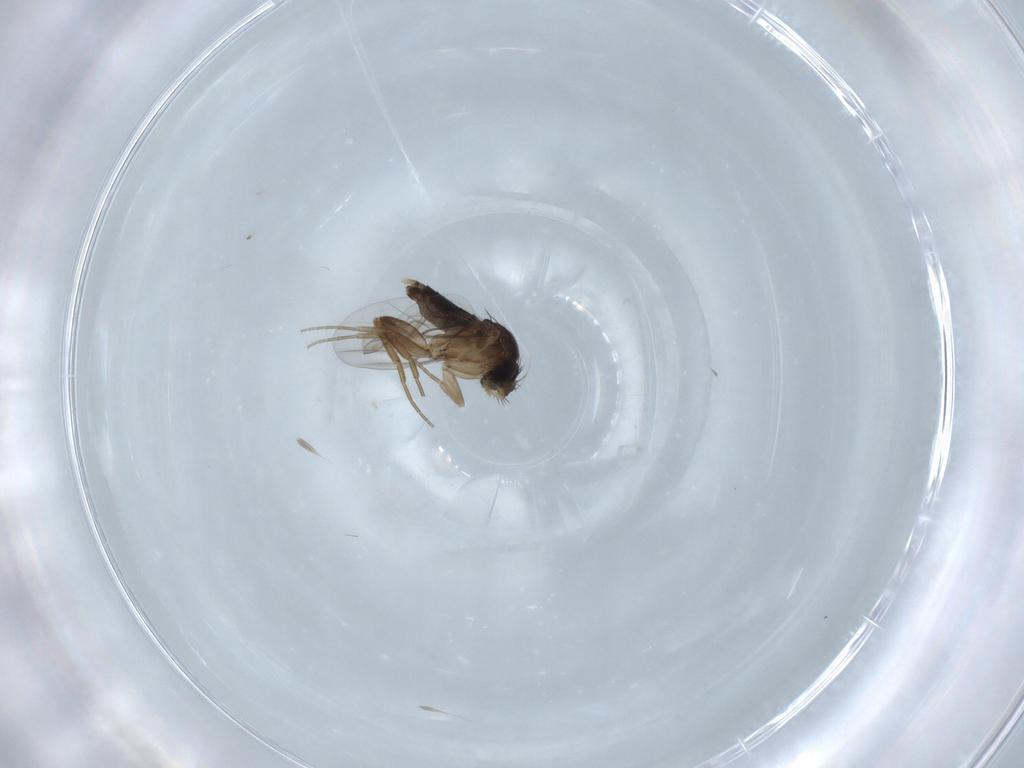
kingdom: Animalia
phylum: Arthropoda
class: Insecta
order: Diptera
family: Phoridae
